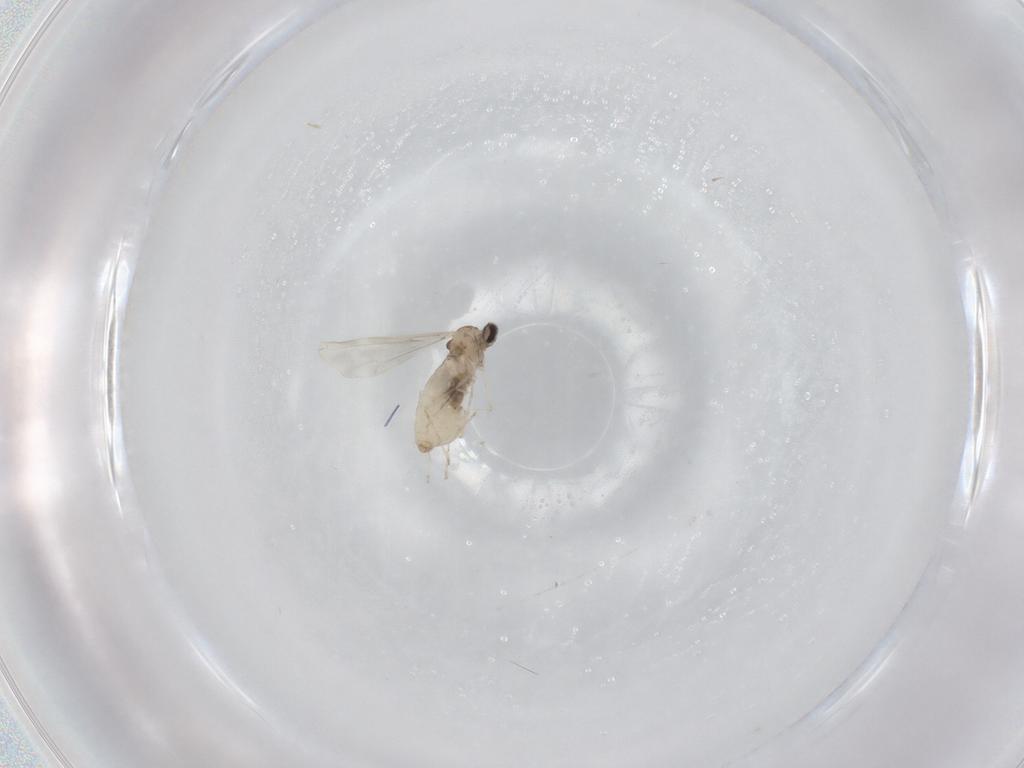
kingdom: Animalia
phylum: Arthropoda
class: Insecta
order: Diptera
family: Cecidomyiidae
